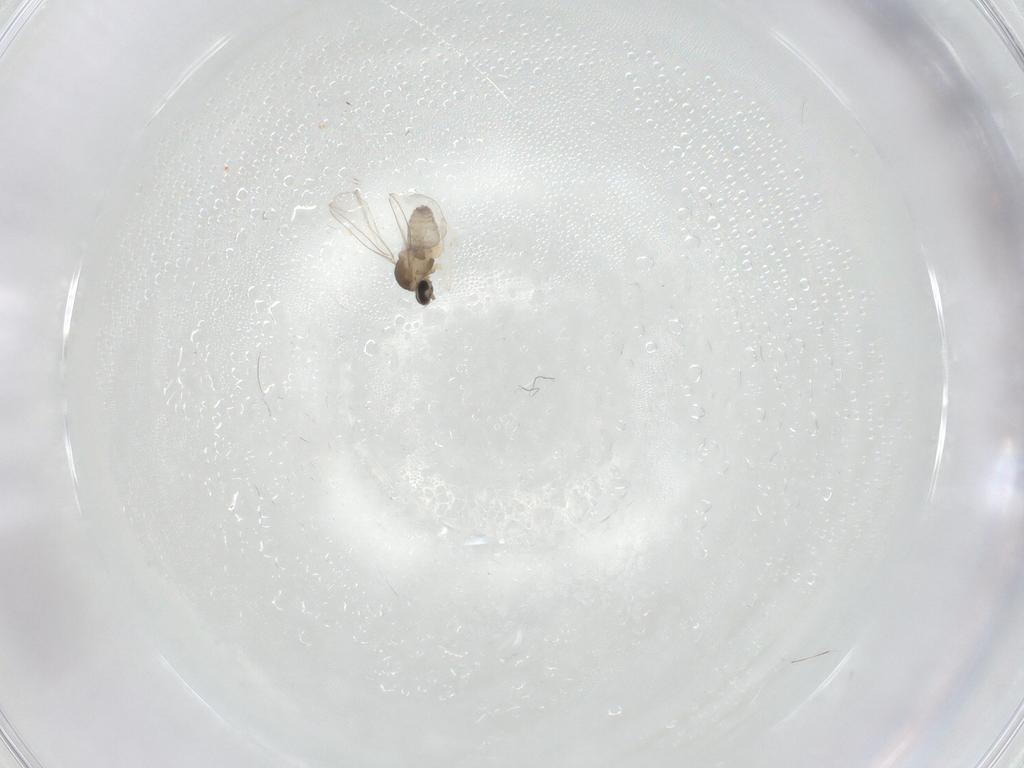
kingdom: Animalia
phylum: Arthropoda
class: Insecta
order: Diptera
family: Cecidomyiidae
